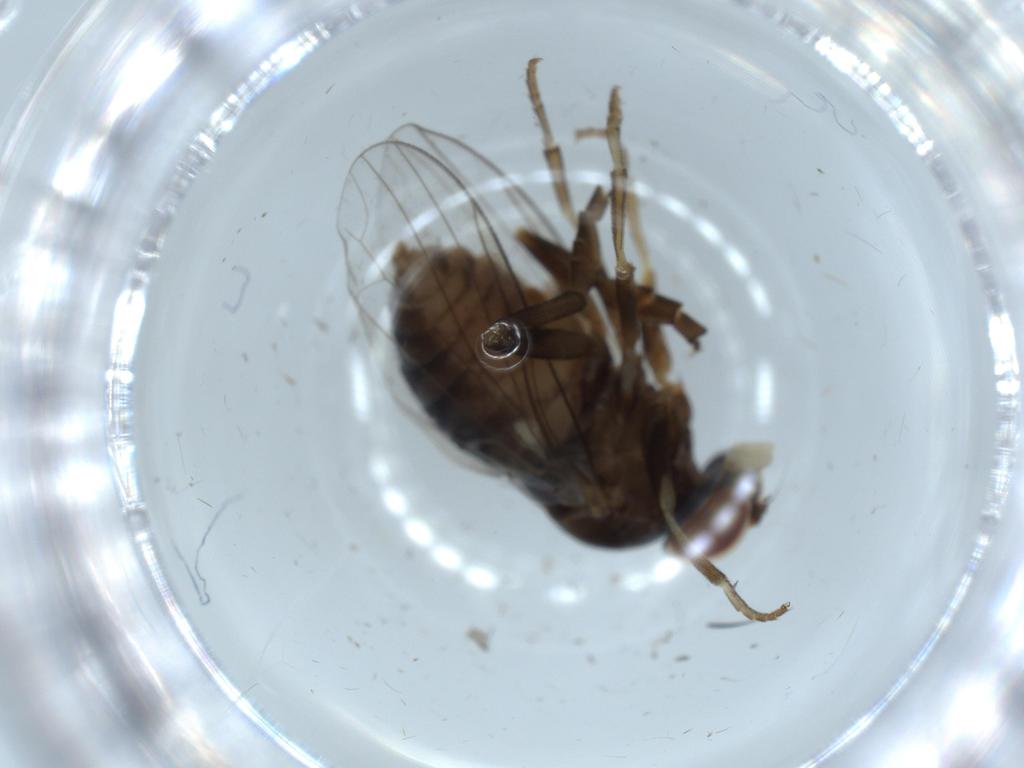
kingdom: Animalia
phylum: Arthropoda
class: Insecta
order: Diptera
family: Platypezidae
